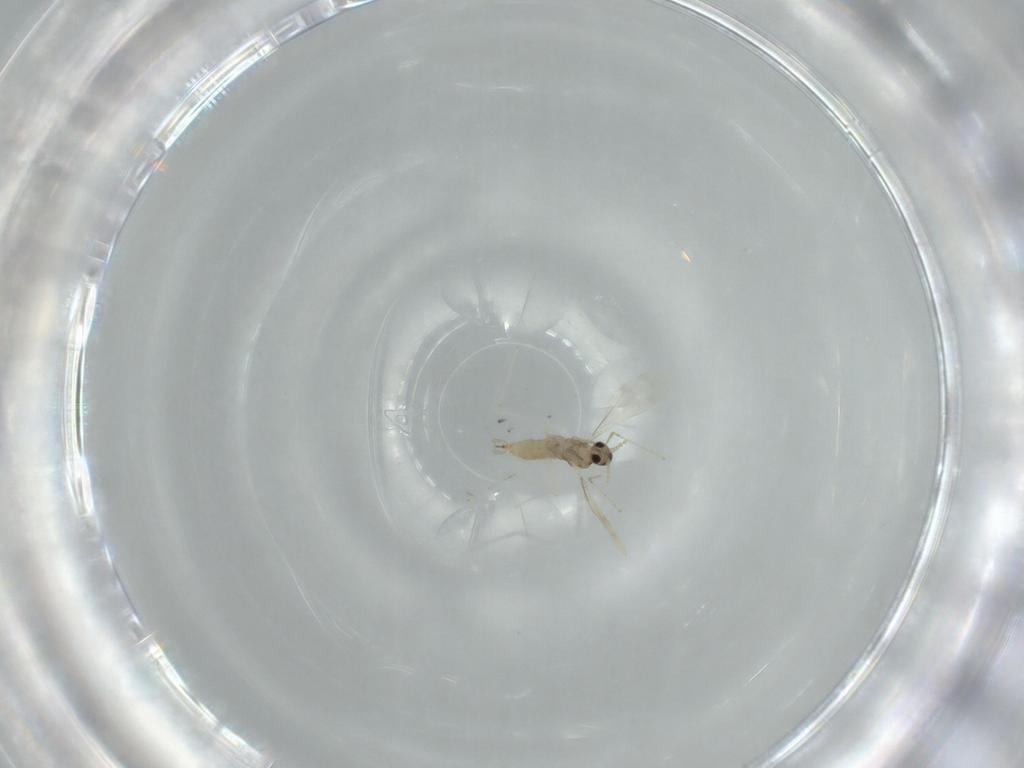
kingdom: Animalia
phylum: Arthropoda
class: Insecta
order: Diptera
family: Cecidomyiidae
